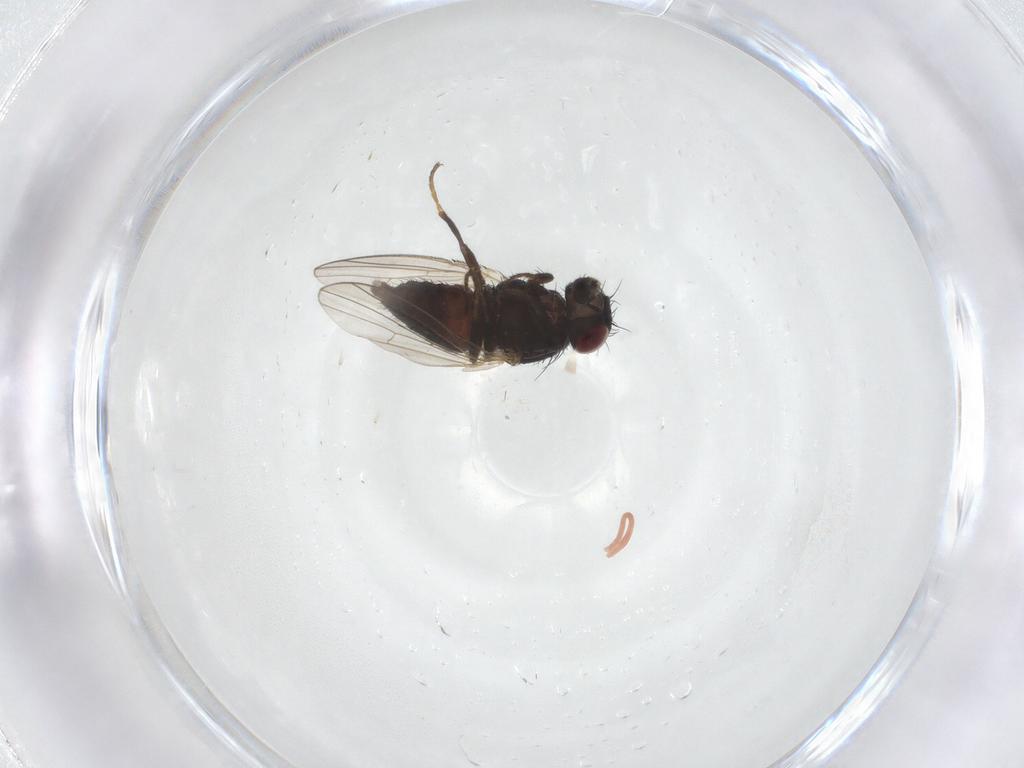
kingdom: Animalia
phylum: Arthropoda
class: Insecta
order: Diptera
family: Carnidae
